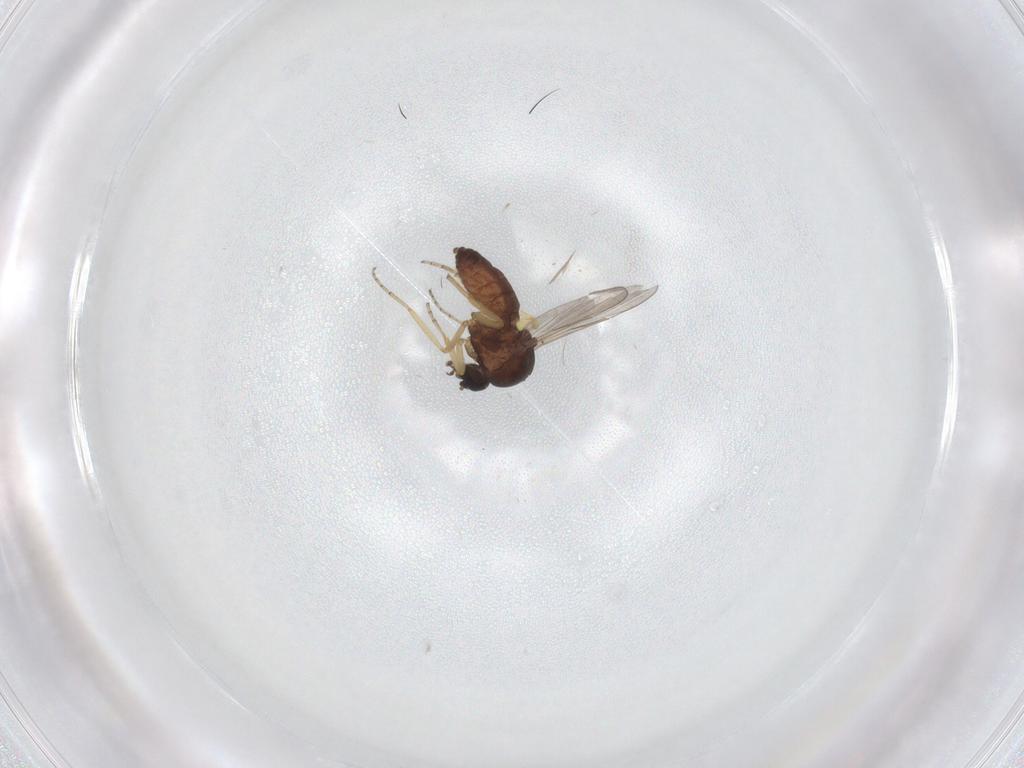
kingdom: Animalia
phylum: Arthropoda
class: Insecta
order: Diptera
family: Ceratopogonidae
